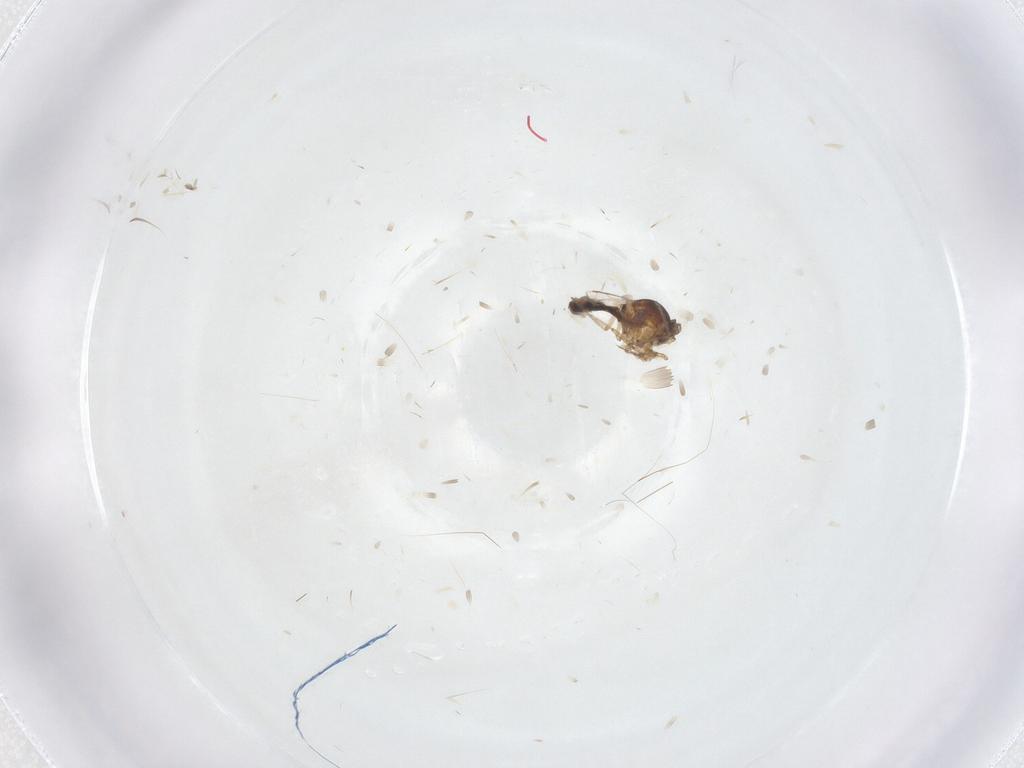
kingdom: Animalia
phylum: Arthropoda
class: Insecta
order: Diptera
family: Ceratopogonidae
